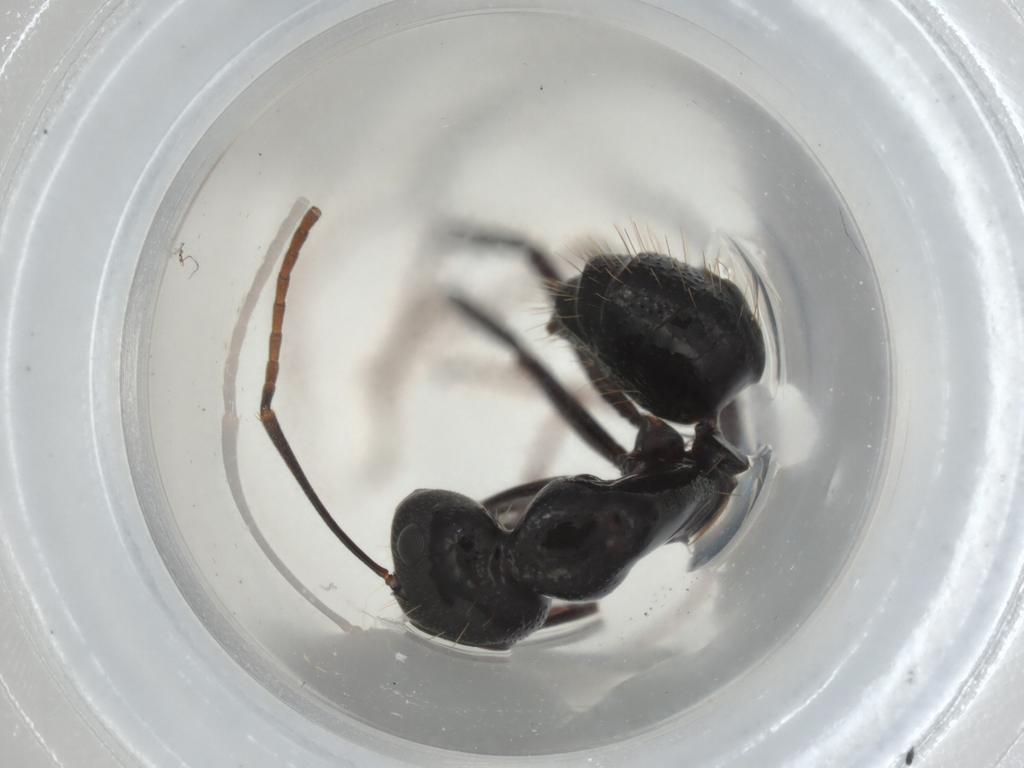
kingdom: Animalia
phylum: Arthropoda
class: Insecta
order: Hymenoptera
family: Formicidae
